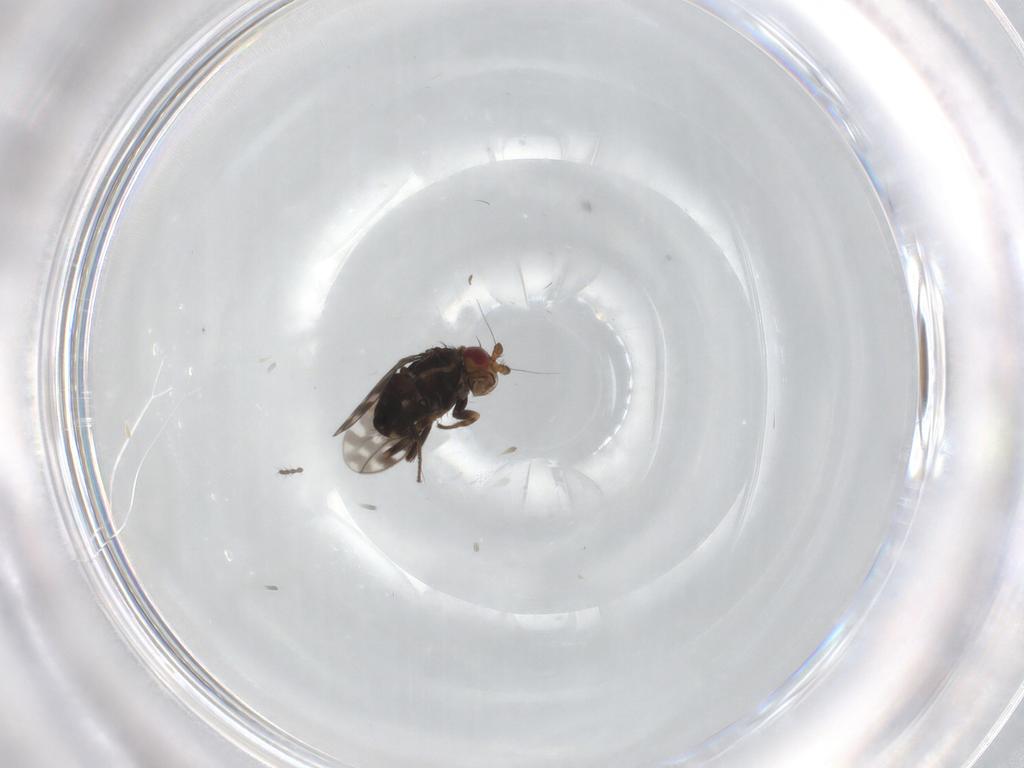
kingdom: Animalia
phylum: Arthropoda
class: Insecta
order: Diptera
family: Sphaeroceridae
